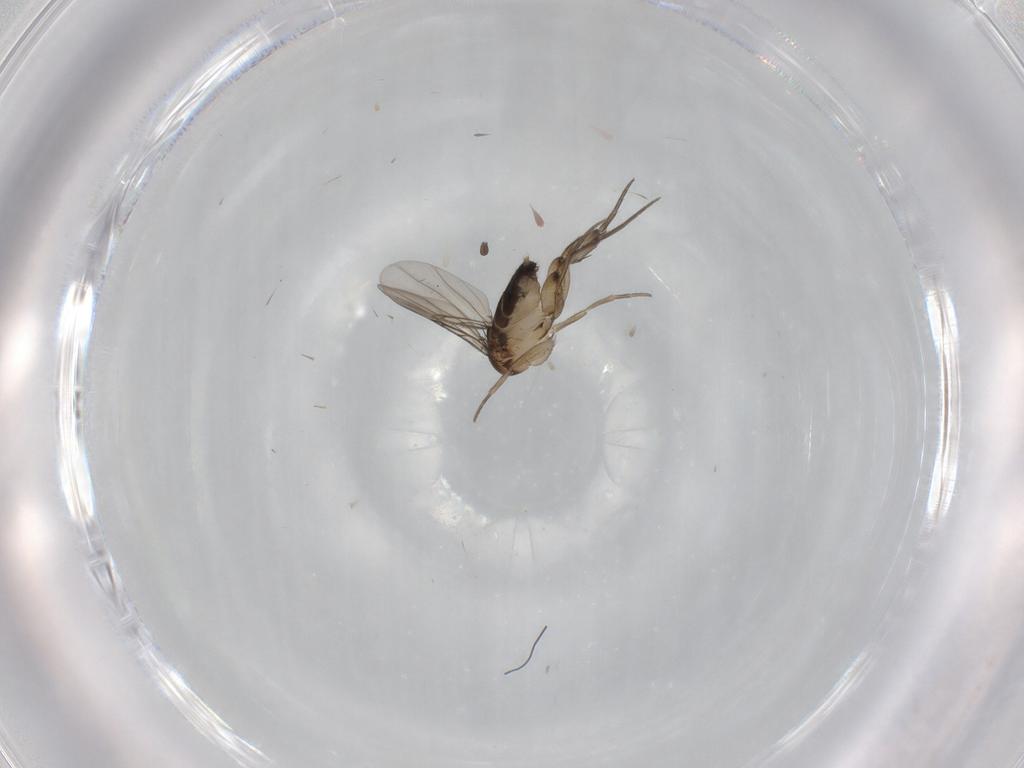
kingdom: Animalia
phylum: Arthropoda
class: Insecta
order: Diptera
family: Phoridae
